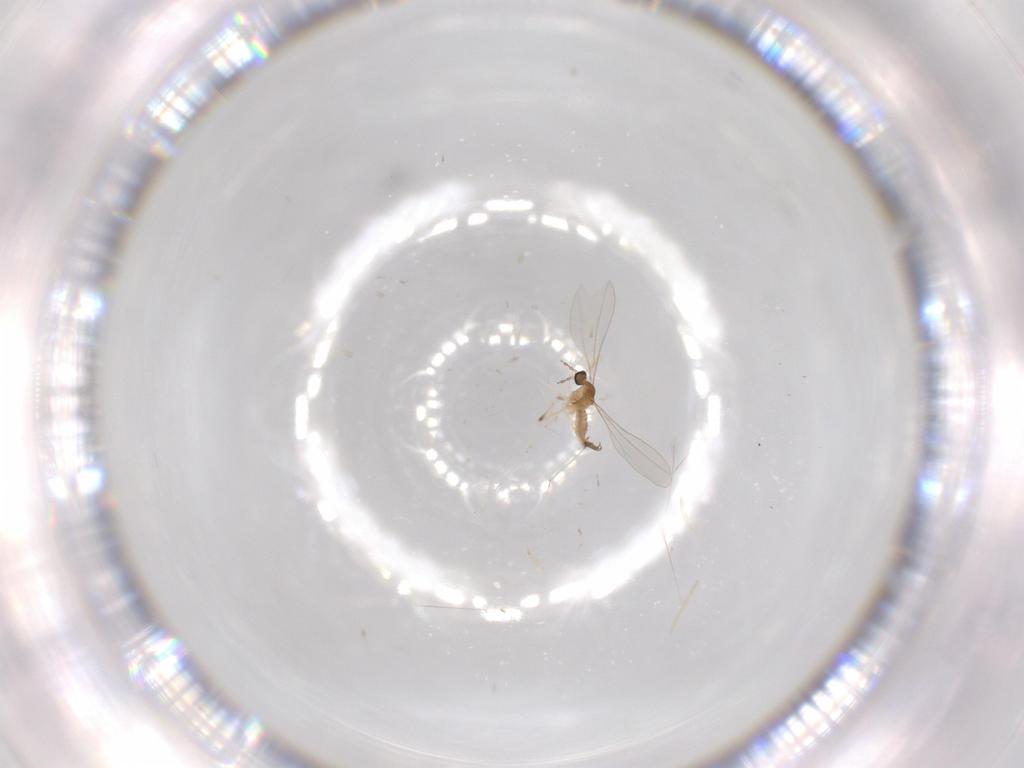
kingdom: Animalia
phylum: Arthropoda
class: Insecta
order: Diptera
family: Cecidomyiidae
